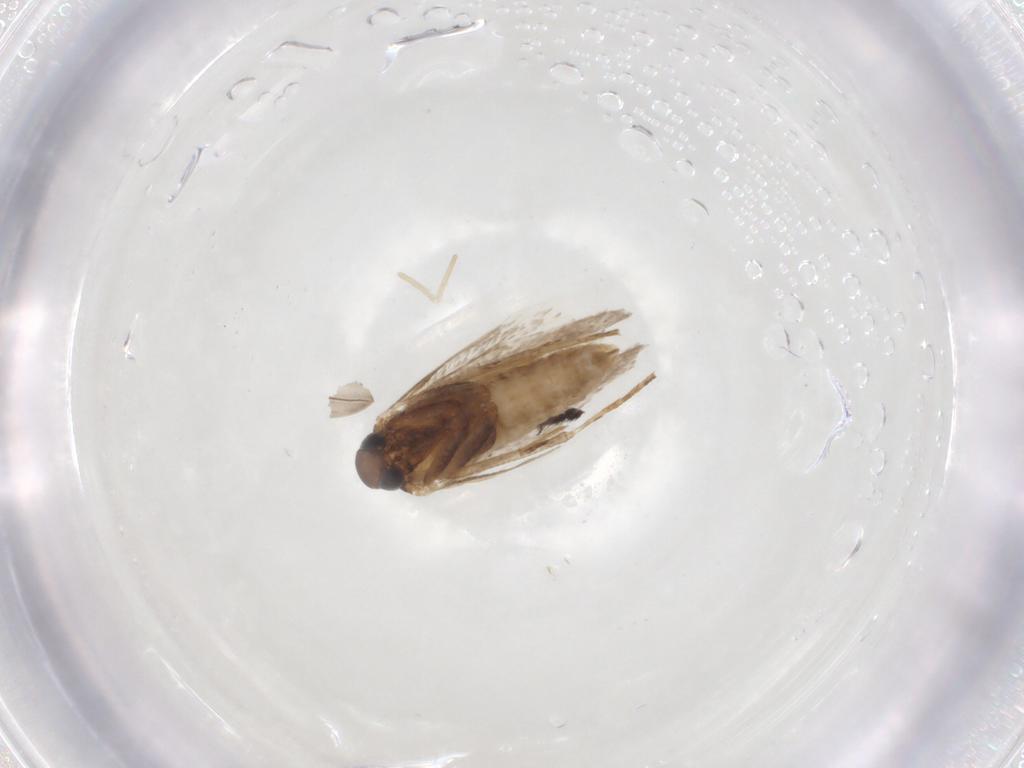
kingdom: Animalia
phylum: Arthropoda
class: Insecta
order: Lepidoptera
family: Gelechiidae
